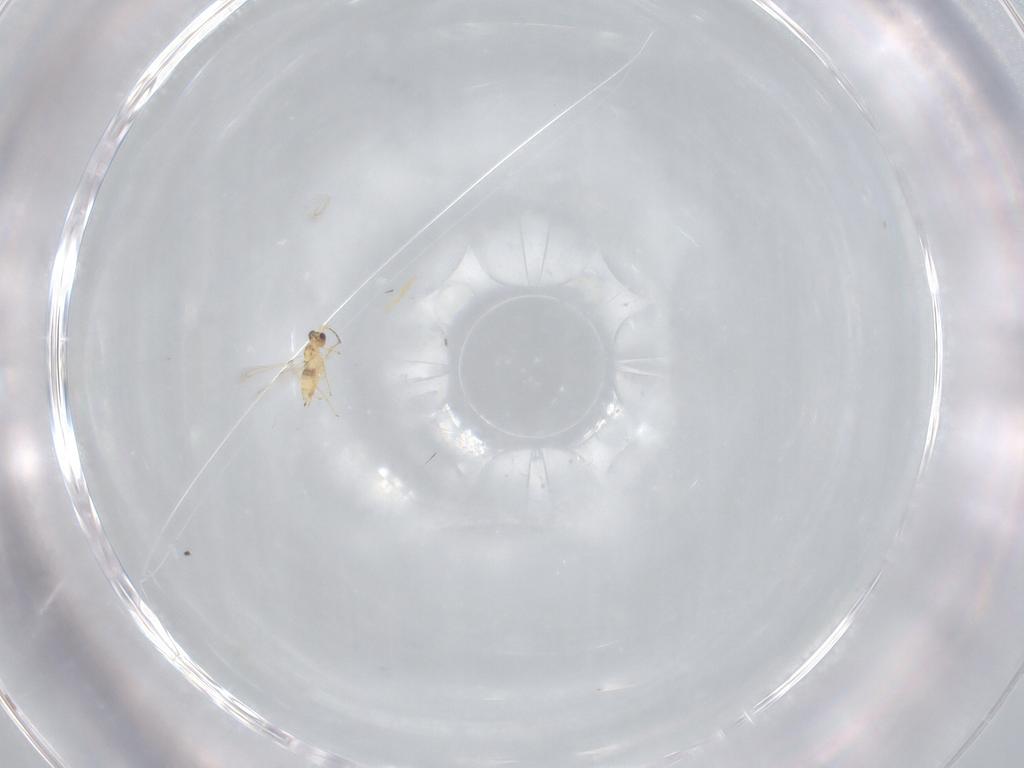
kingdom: Animalia
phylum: Arthropoda
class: Insecta
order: Hymenoptera
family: Mymaridae
